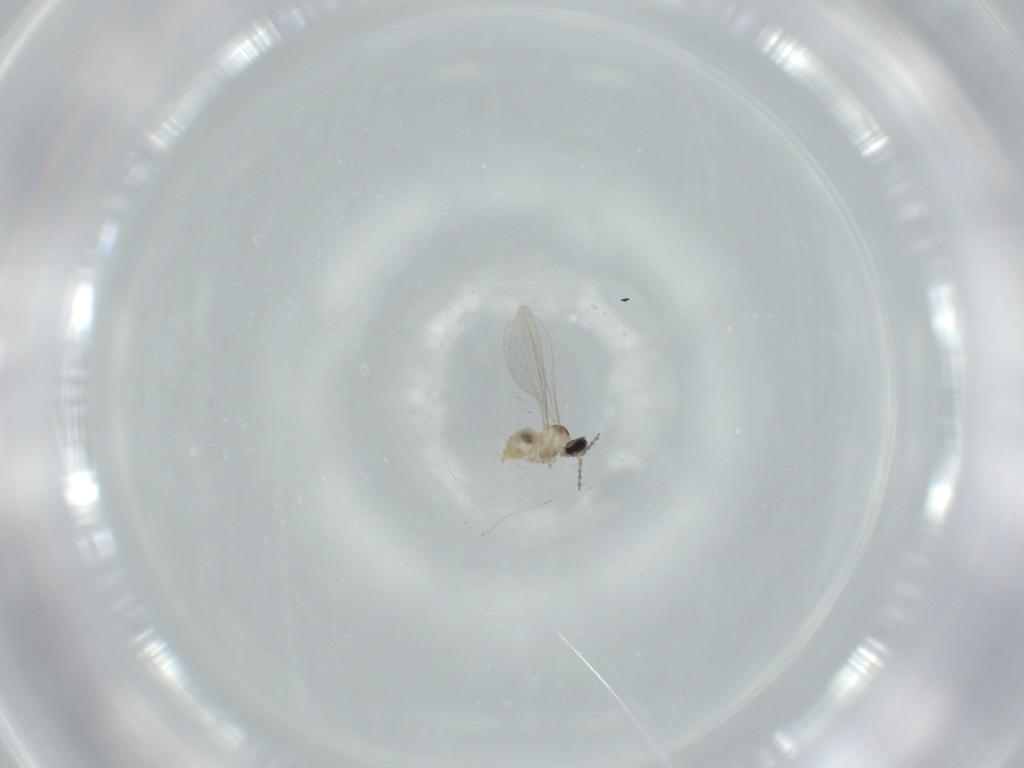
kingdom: Animalia
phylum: Arthropoda
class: Insecta
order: Diptera
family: Cecidomyiidae
